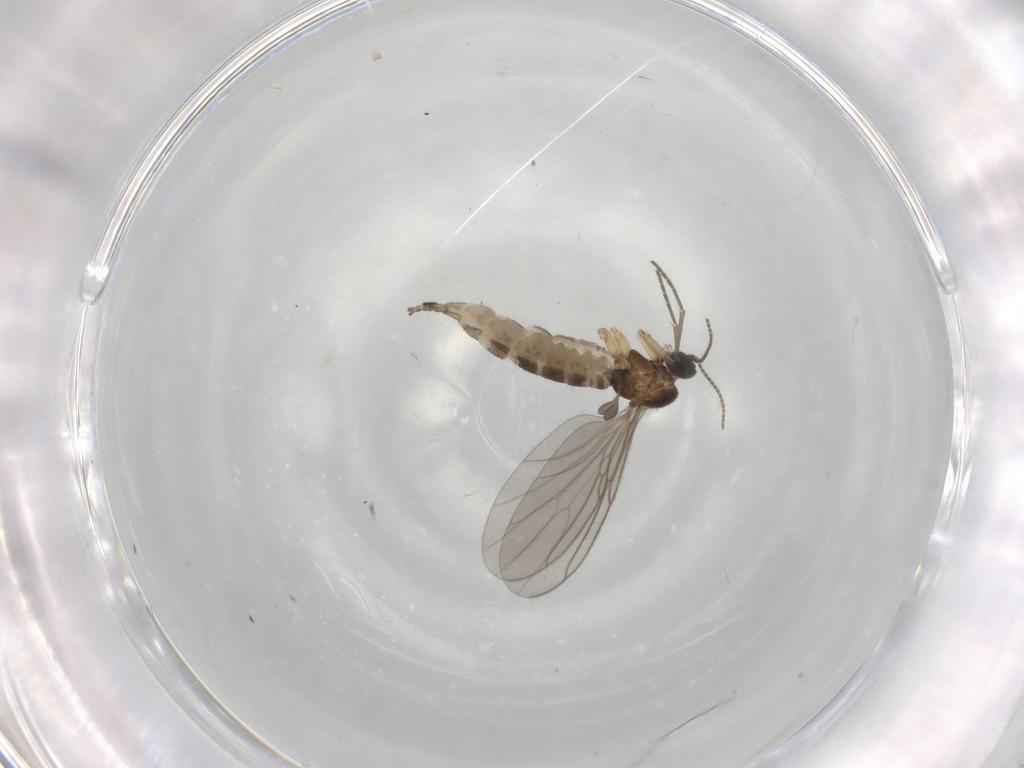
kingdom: Animalia
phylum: Arthropoda
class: Insecta
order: Diptera
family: Sciaridae
